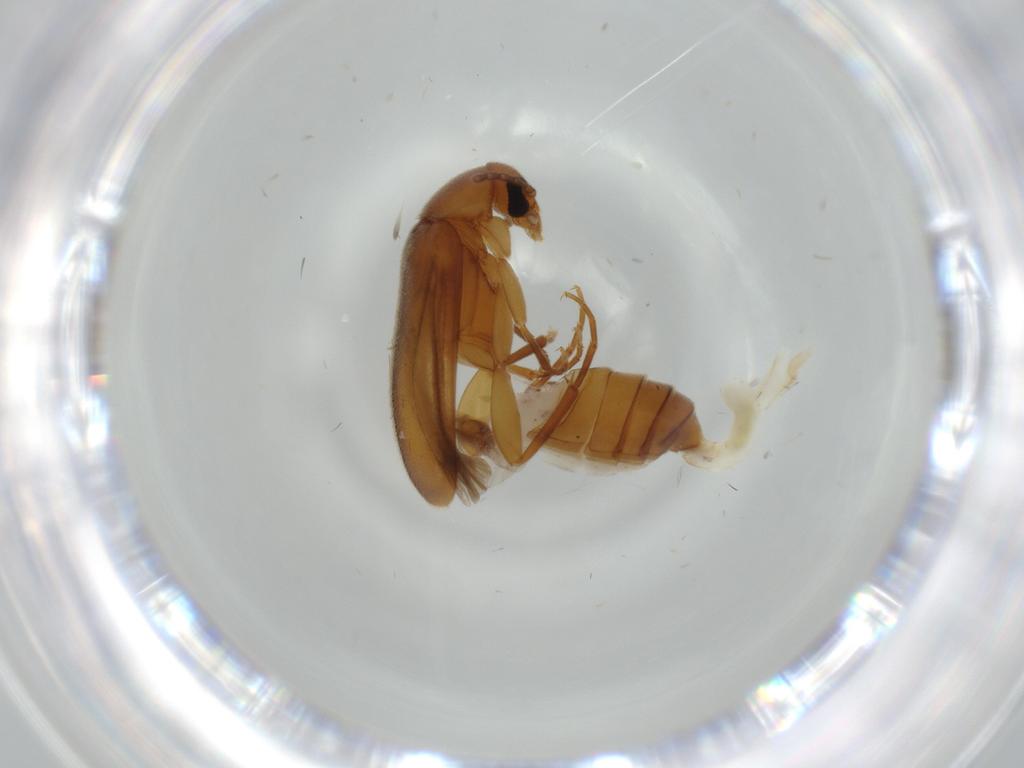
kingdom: Animalia
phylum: Arthropoda
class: Insecta
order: Coleoptera
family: Scraptiidae
